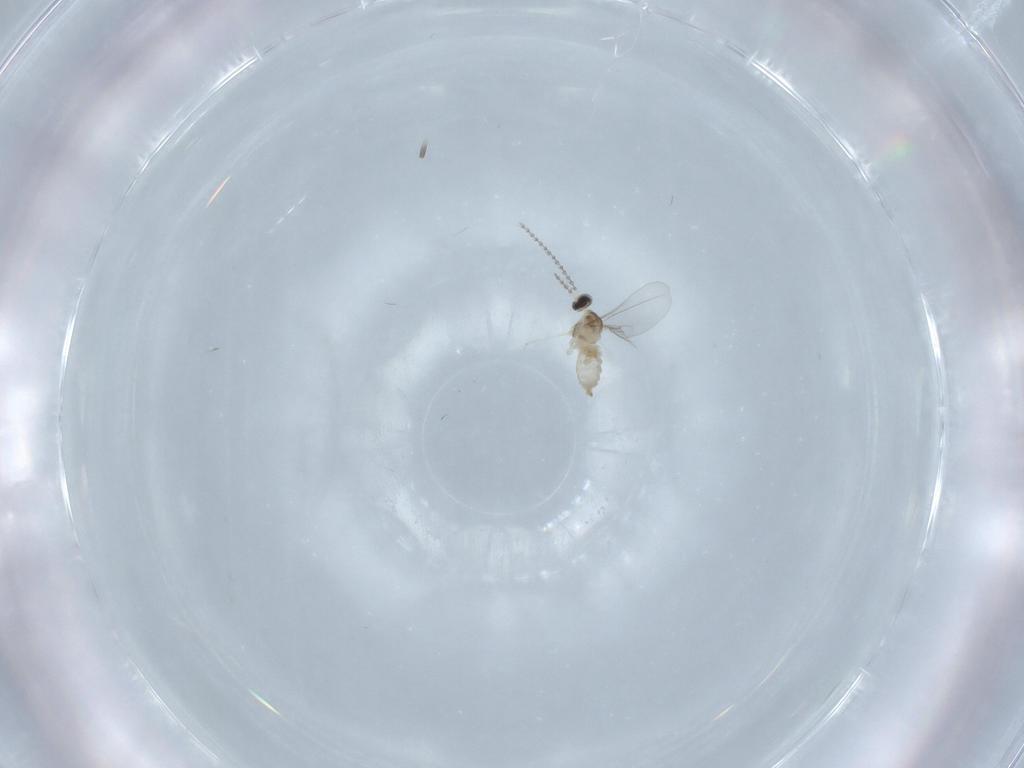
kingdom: Animalia
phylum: Arthropoda
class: Insecta
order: Diptera
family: Cecidomyiidae
